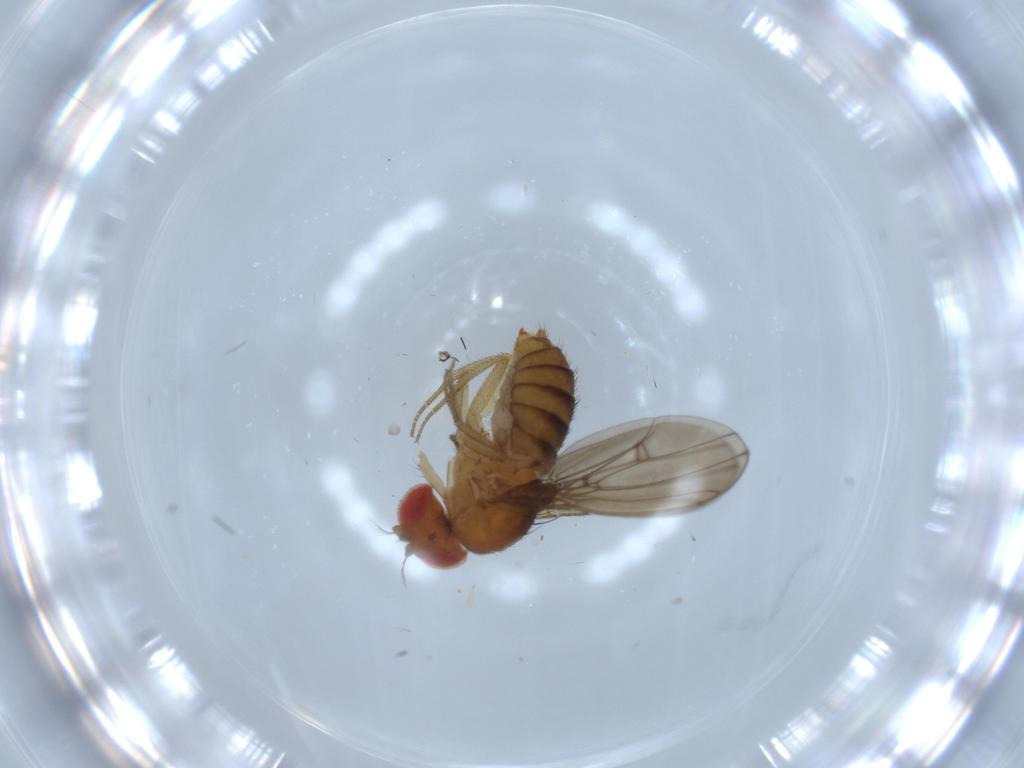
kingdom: Animalia
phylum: Arthropoda
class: Insecta
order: Diptera
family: Drosophilidae
